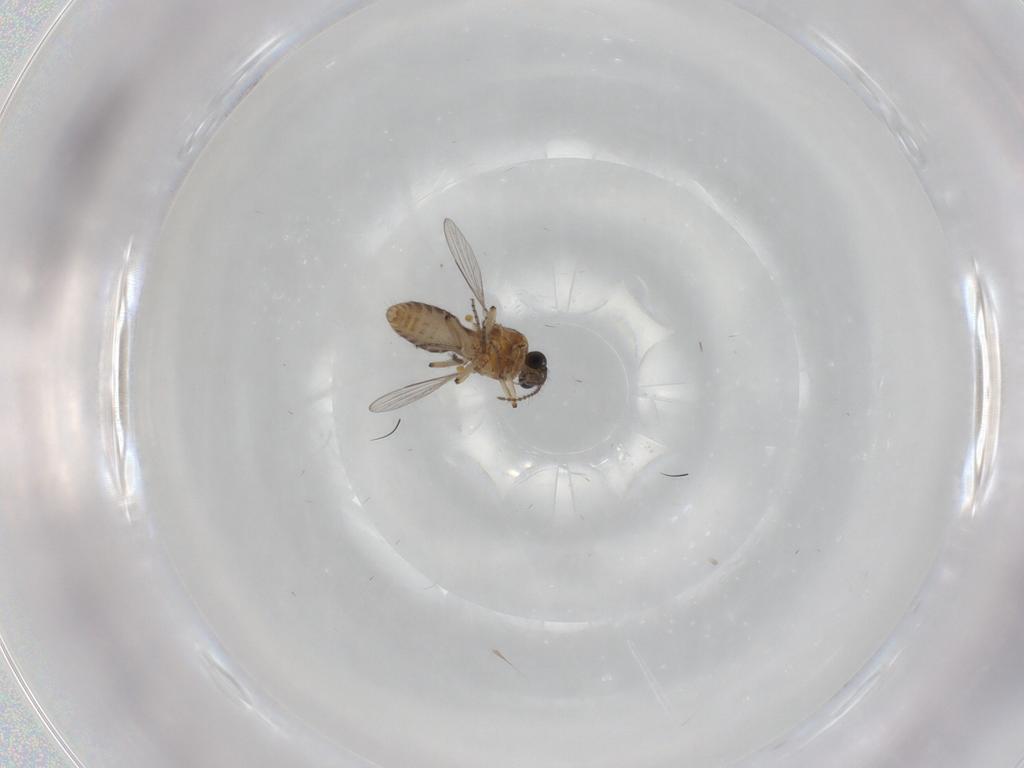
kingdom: Animalia
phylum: Arthropoda
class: Insecta
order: Diptera
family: Ceratopogonidae
